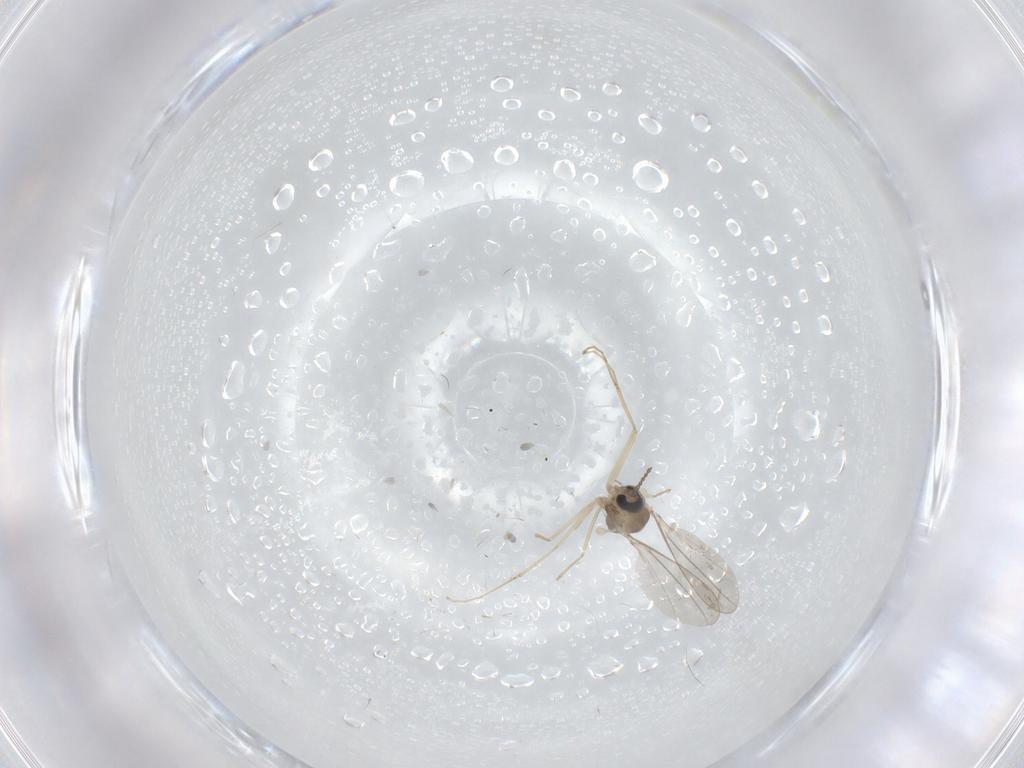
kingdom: Animalia
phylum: Arthropoda
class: Insecta
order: Diptera
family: Cecidomyiidae
